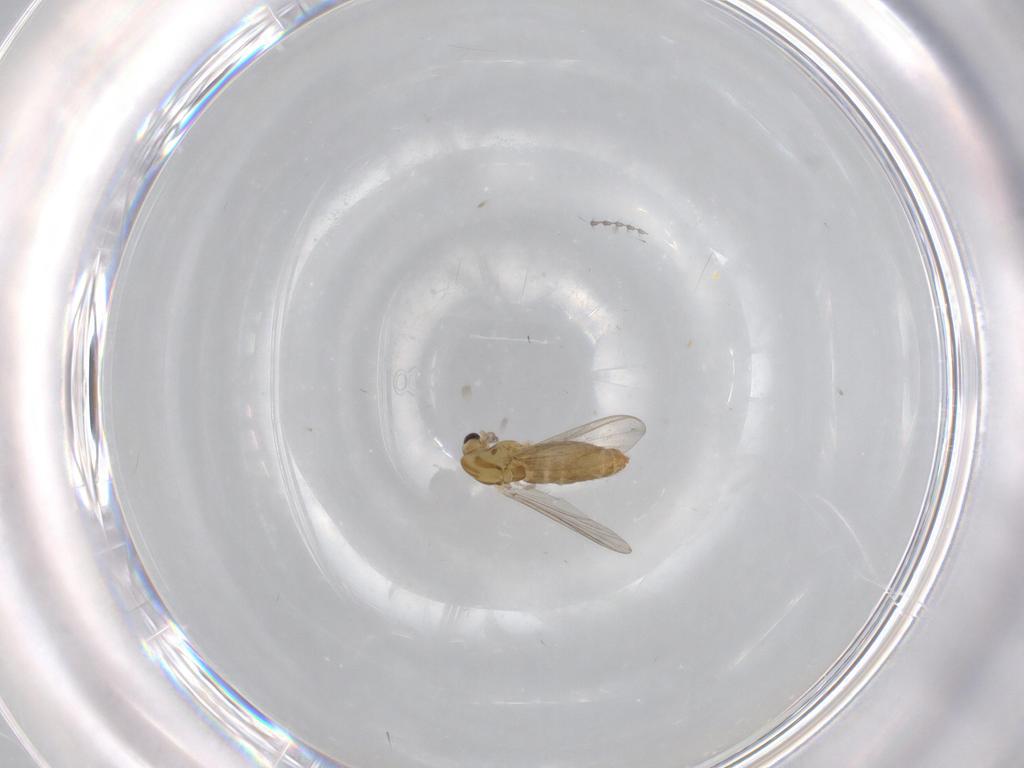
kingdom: Animalia
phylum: Arthropoda
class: Insecta
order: Diptera
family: Chironomidae
